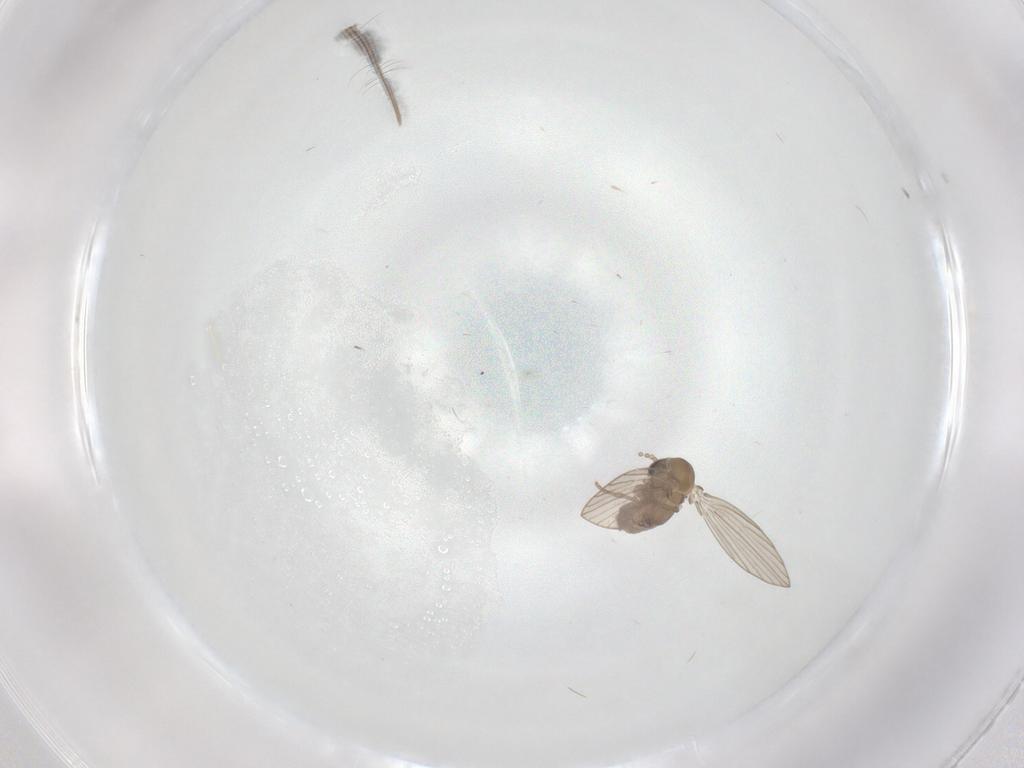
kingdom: Animalia
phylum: Arthropoda
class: Insecta
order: Diptera
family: Psychodidae
